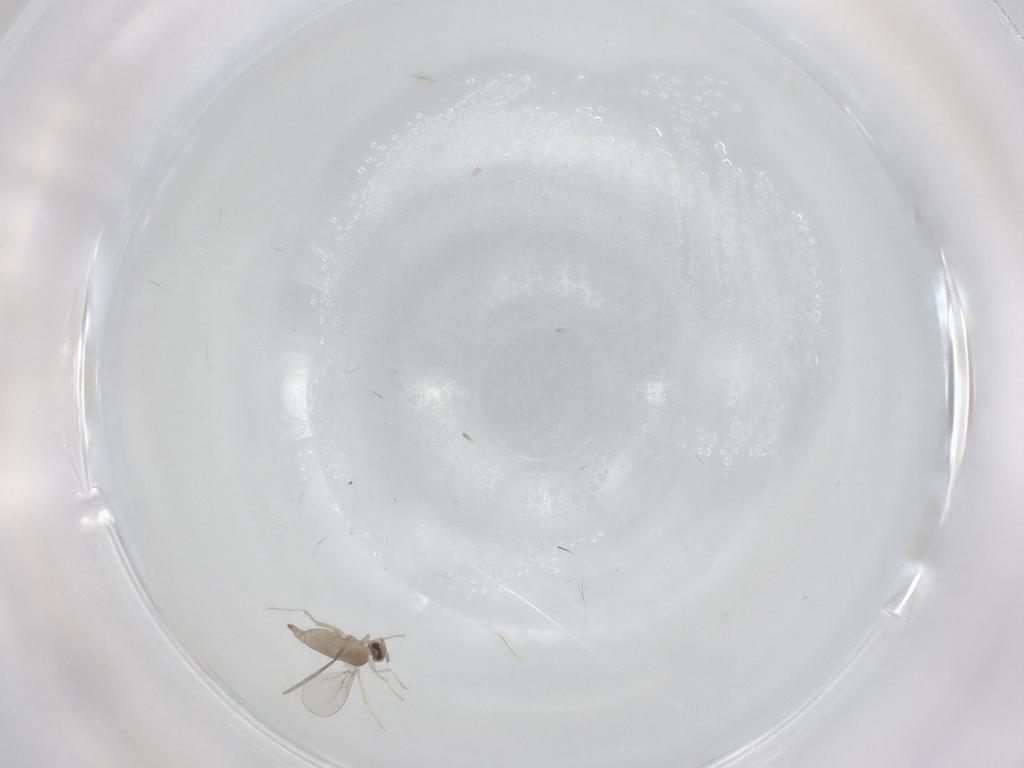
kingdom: Animalia
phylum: Arthropoda
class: Insecta
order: Diptera
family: Cecidomyiidae
